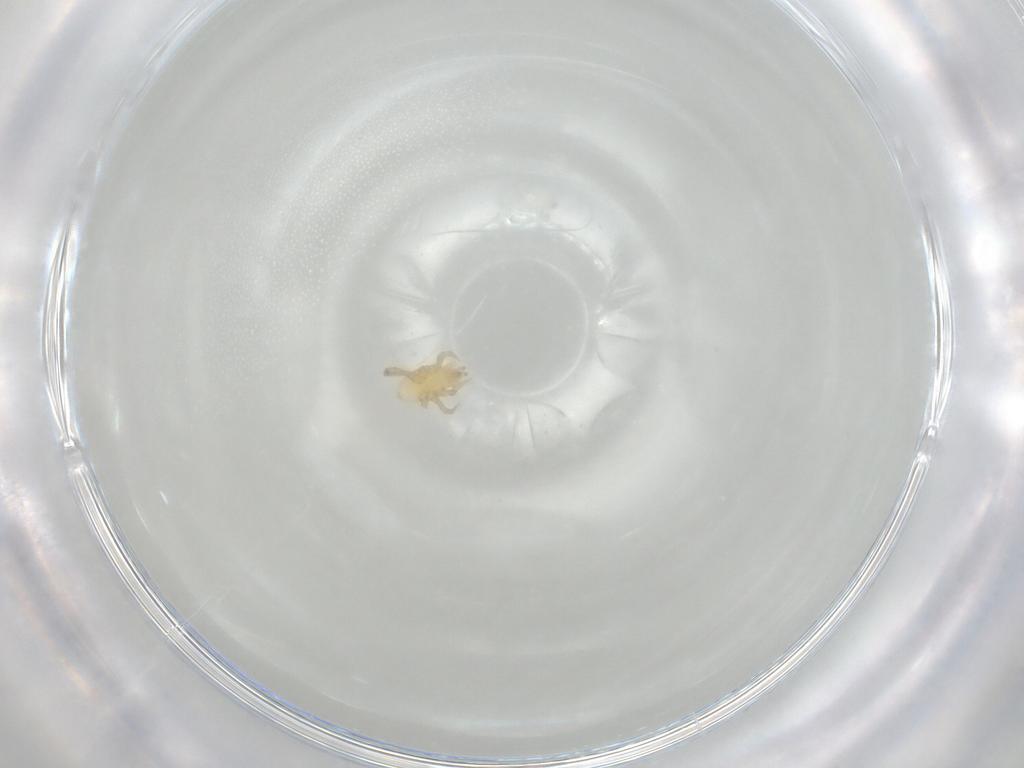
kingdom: Animalia
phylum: Arthropoda
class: Arachnida
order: Mesostigmata
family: Parasitidae
